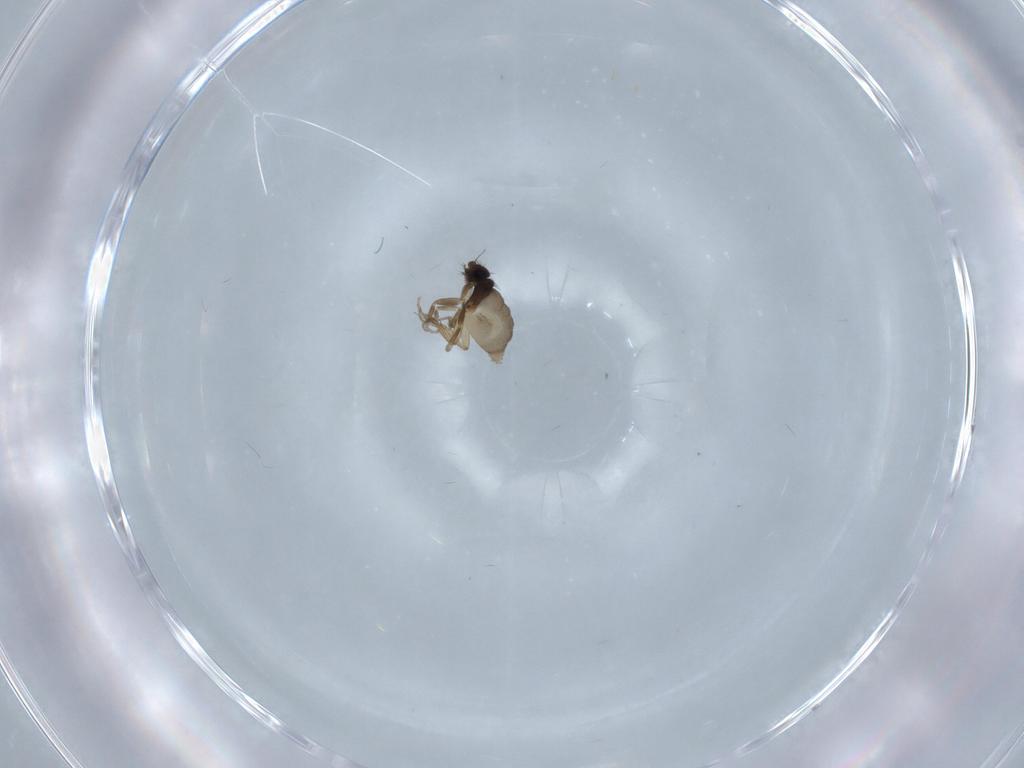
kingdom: Animalia
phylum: Arthropoda
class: Insecta
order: Diptera
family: Phoridae
